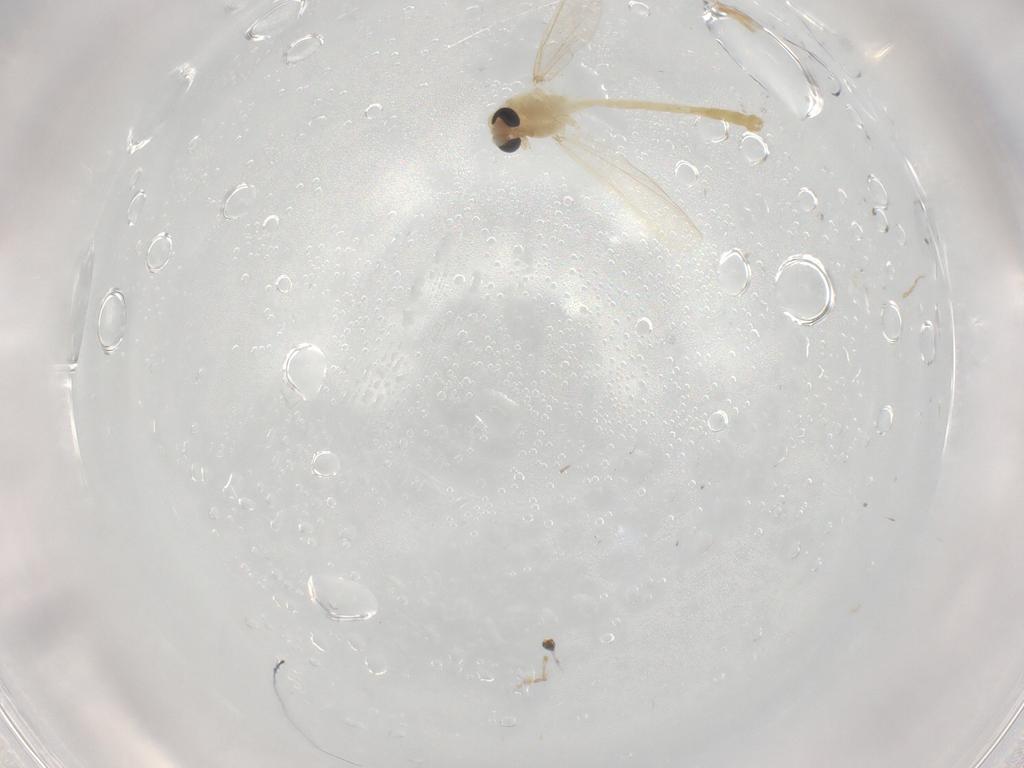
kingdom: Animalia
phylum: Arthropoda
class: Insecta
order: Diptera
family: Chironomidae
